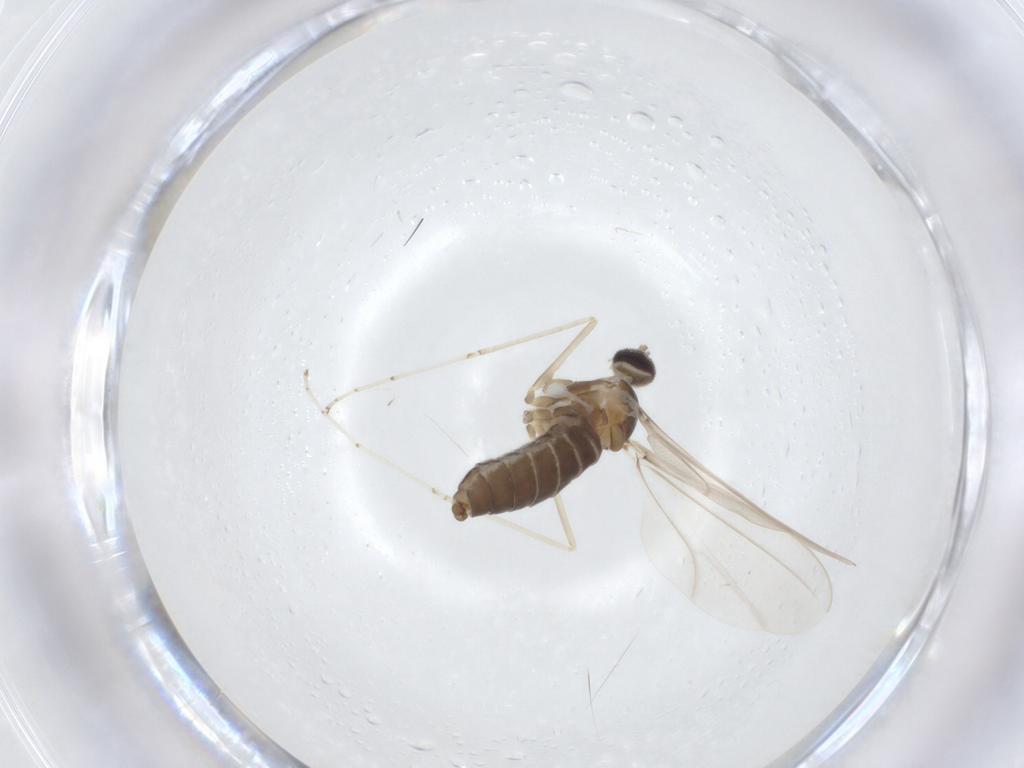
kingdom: Animalia
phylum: Arthropoda
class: Insecta
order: Diptera
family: Cecidomyiidae
